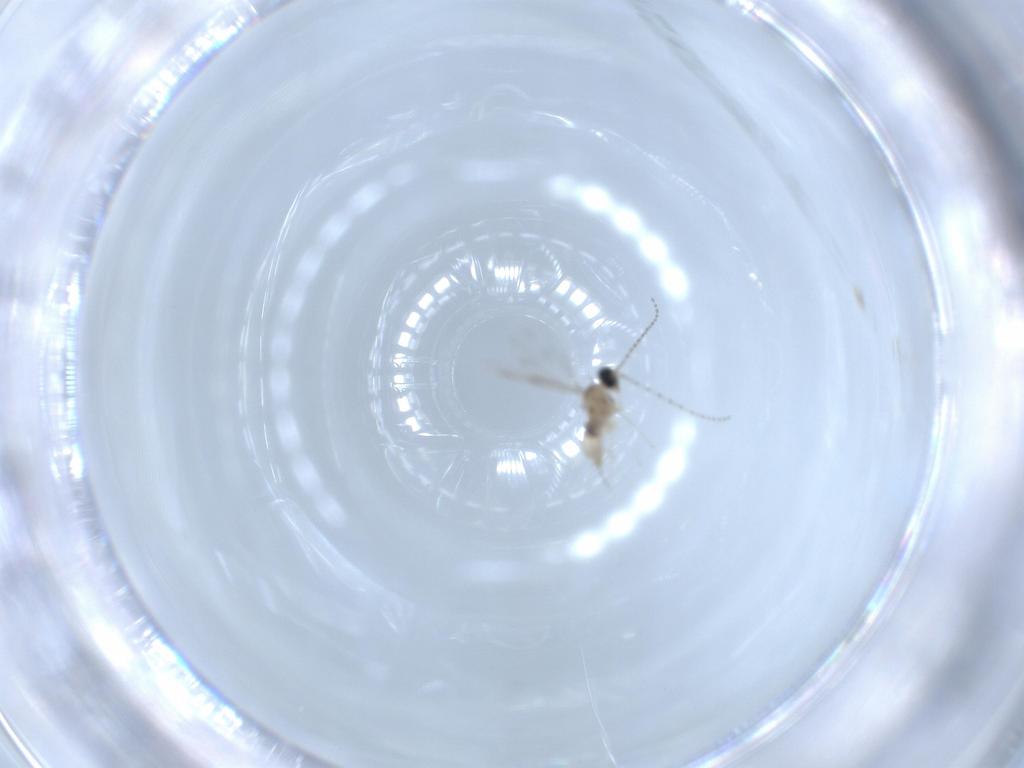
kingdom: Animalia
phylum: Arthropoda
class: Insecta
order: Diptera
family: Sphaeroceridae
